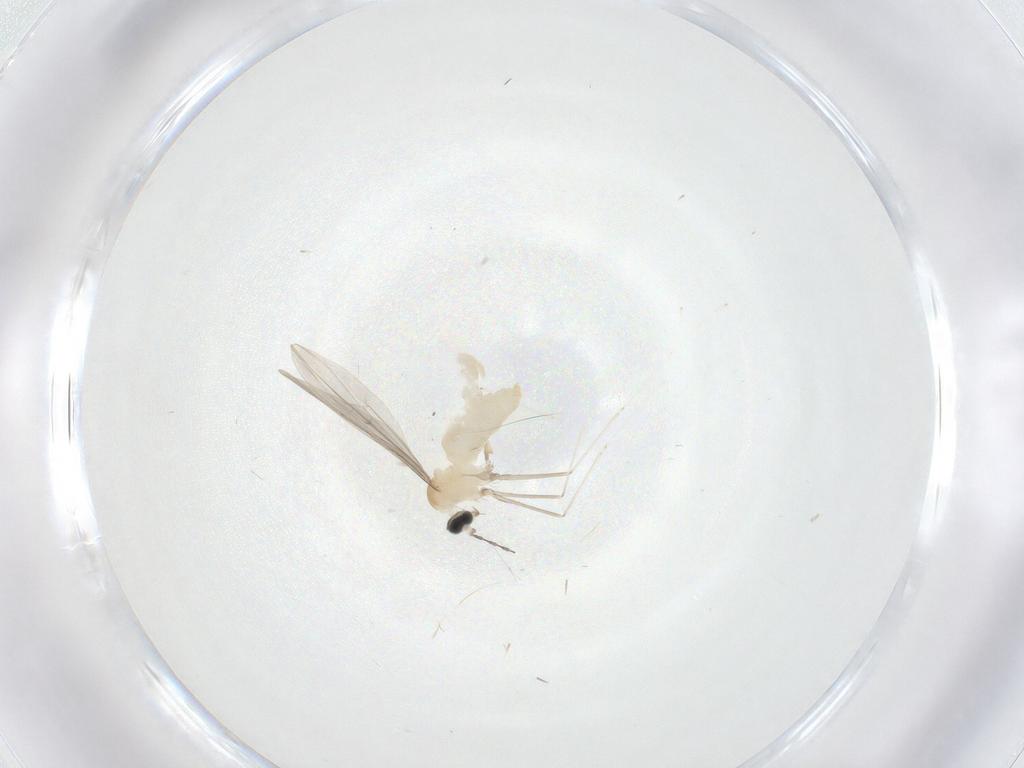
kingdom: Animalia
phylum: Arthropoda
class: Insecta
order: Diptera
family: Cecidomyiidae
